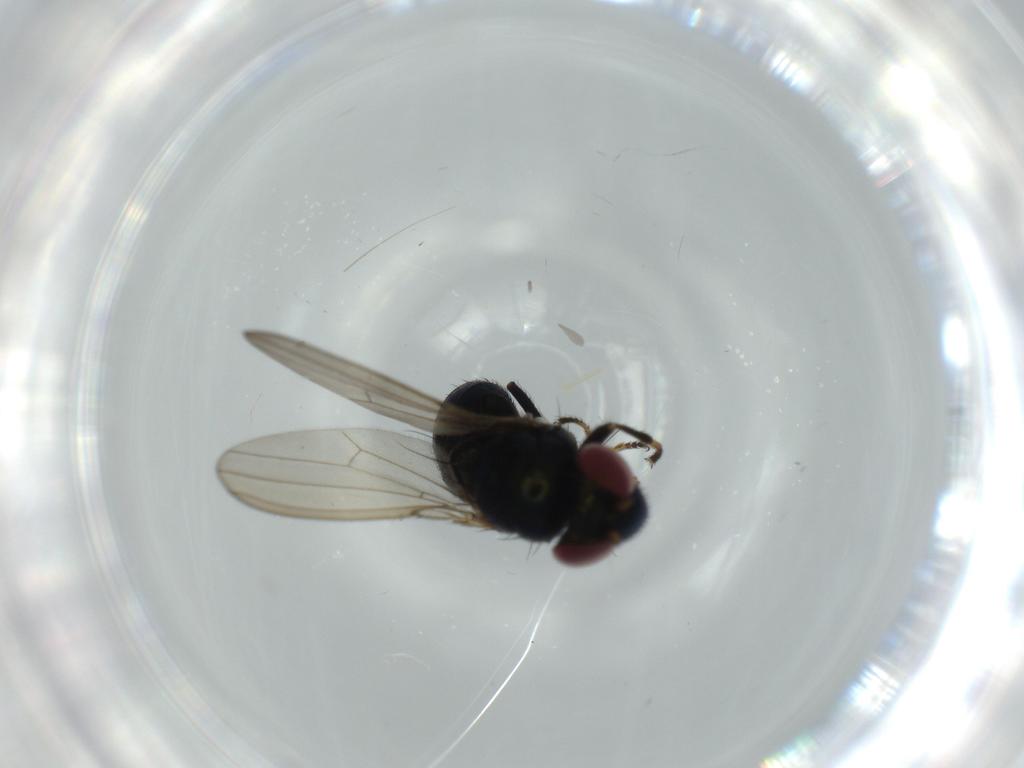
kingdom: Animalia
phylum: Arthropoda
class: Insecta
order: Diptera
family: Ephydridae
